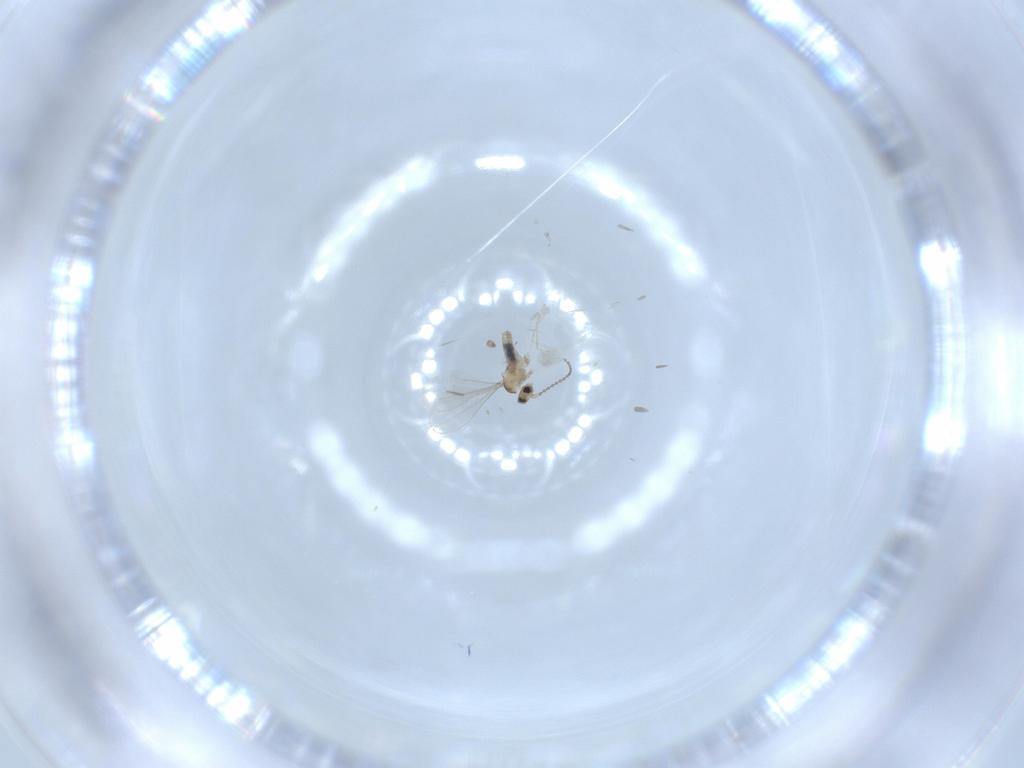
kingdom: Animalia
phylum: Arthropoda
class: Insecta
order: Diptera
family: Cecidomyiidae
